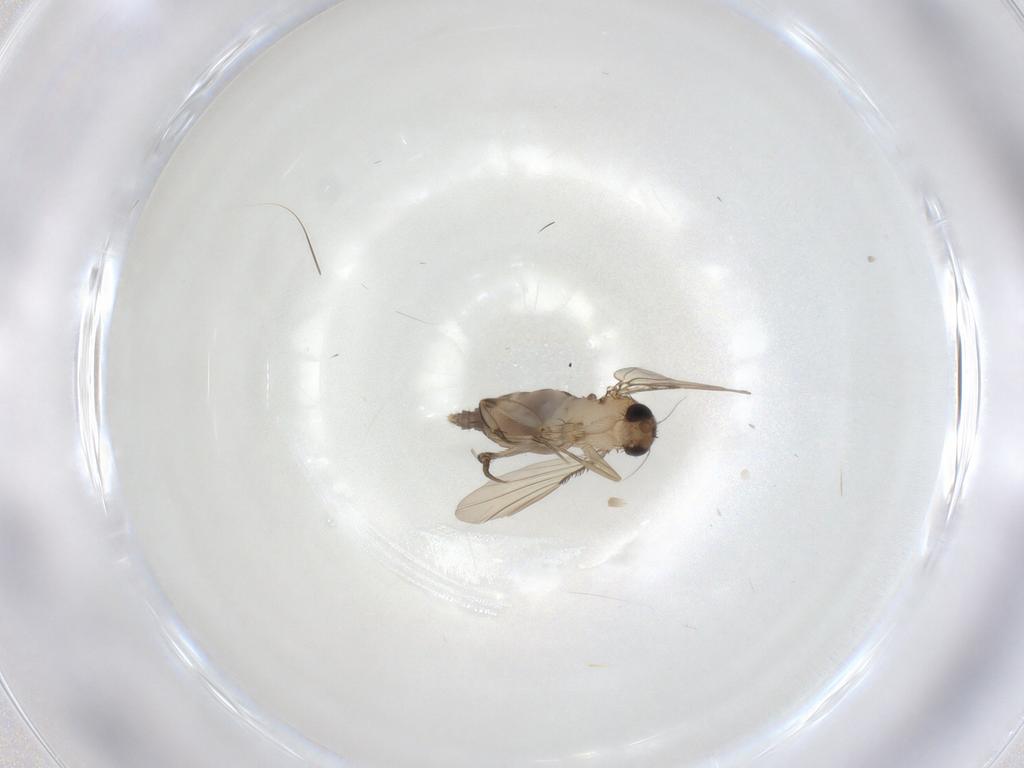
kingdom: Animalia
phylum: Arthropoda
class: Insecta
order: Diptera
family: Phoridae
